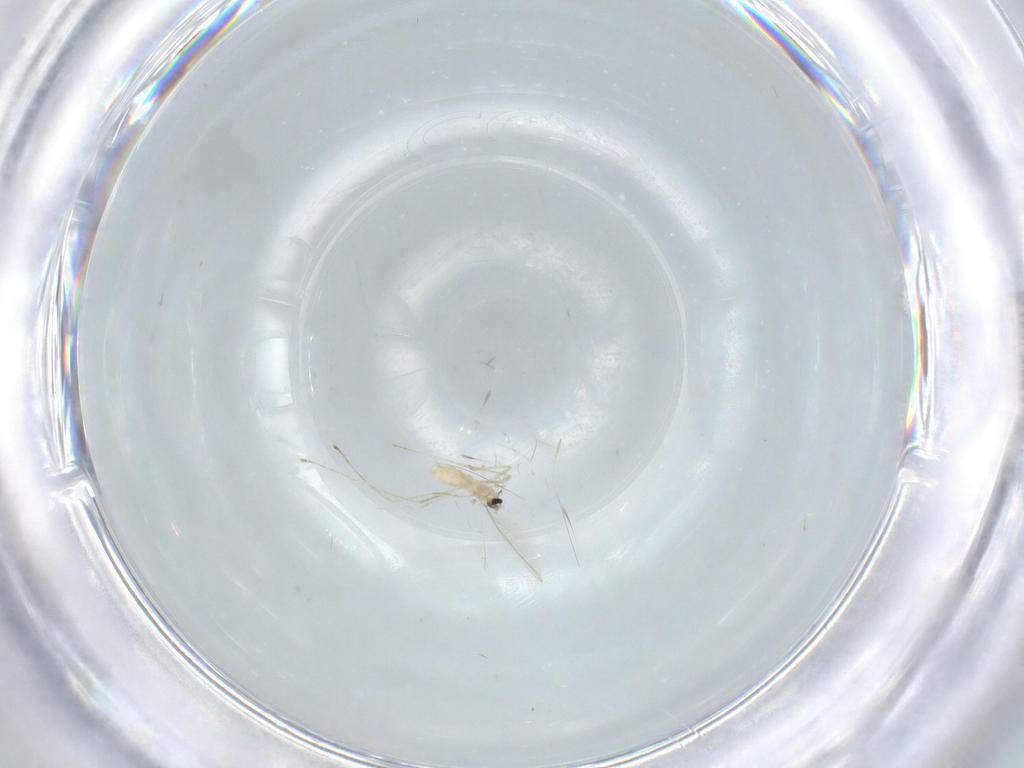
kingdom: Animalia
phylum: Arthropoda
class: Insecta
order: Diptera
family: Cecidomyiidae
